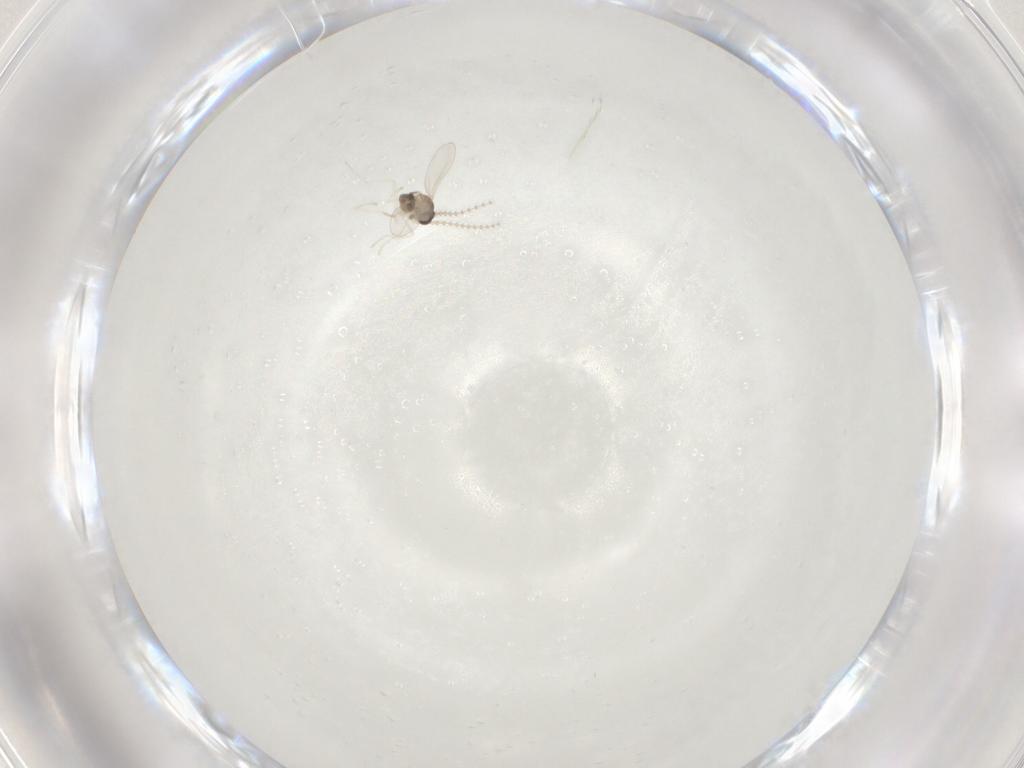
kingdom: Animalia
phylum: Arthropoda
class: Insecta
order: Diptera
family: Cecidomyiidae
